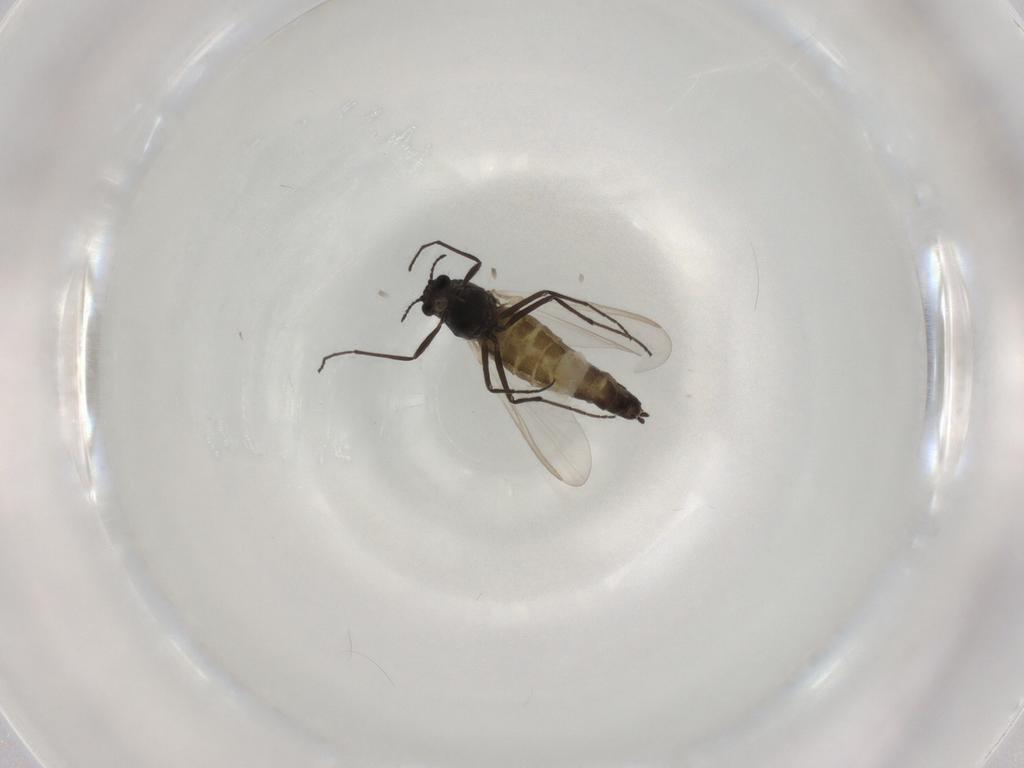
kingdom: Animalia
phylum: Arthropoda
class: Insecta
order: Diptera
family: Chironomidae
